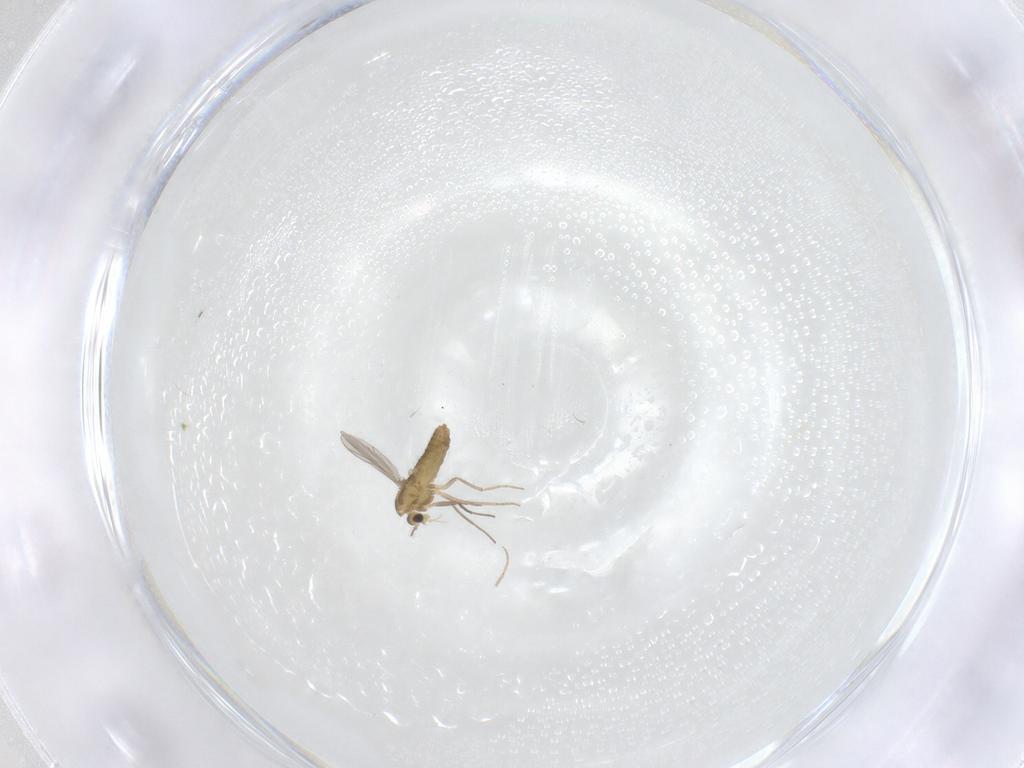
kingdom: Animalia
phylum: Arthropoda
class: Insecta
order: Diptera
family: Chironomidae
